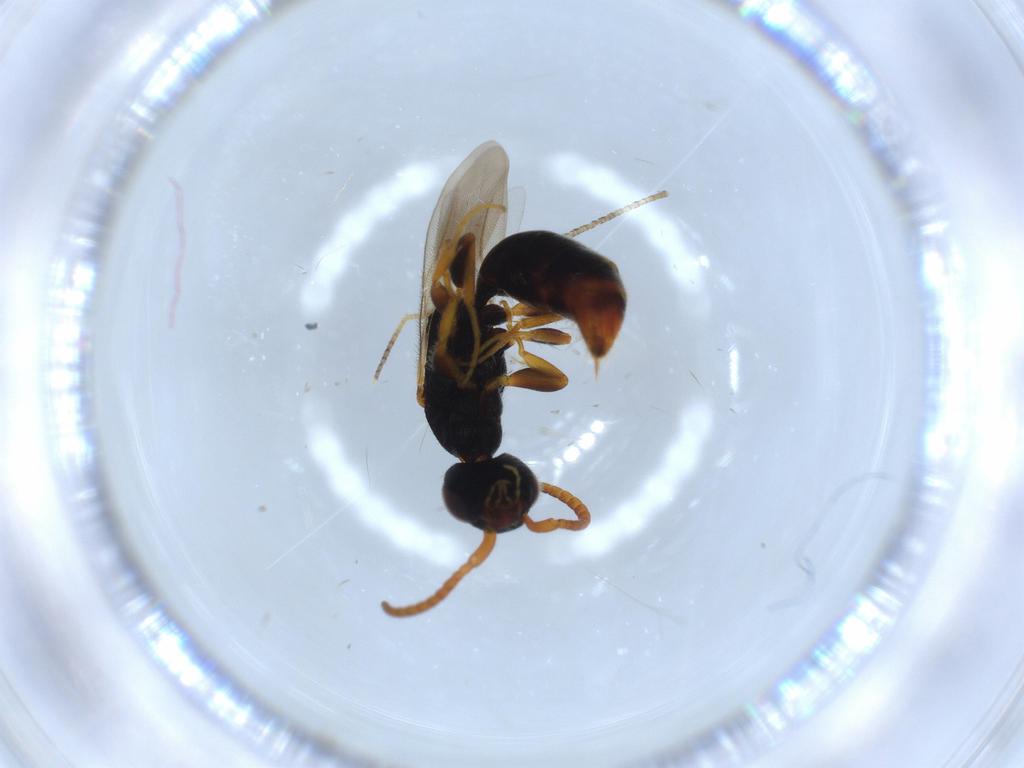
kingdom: Animalia
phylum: Arthropoda
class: Insecta
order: Hymenoptera
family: Bethylidae
